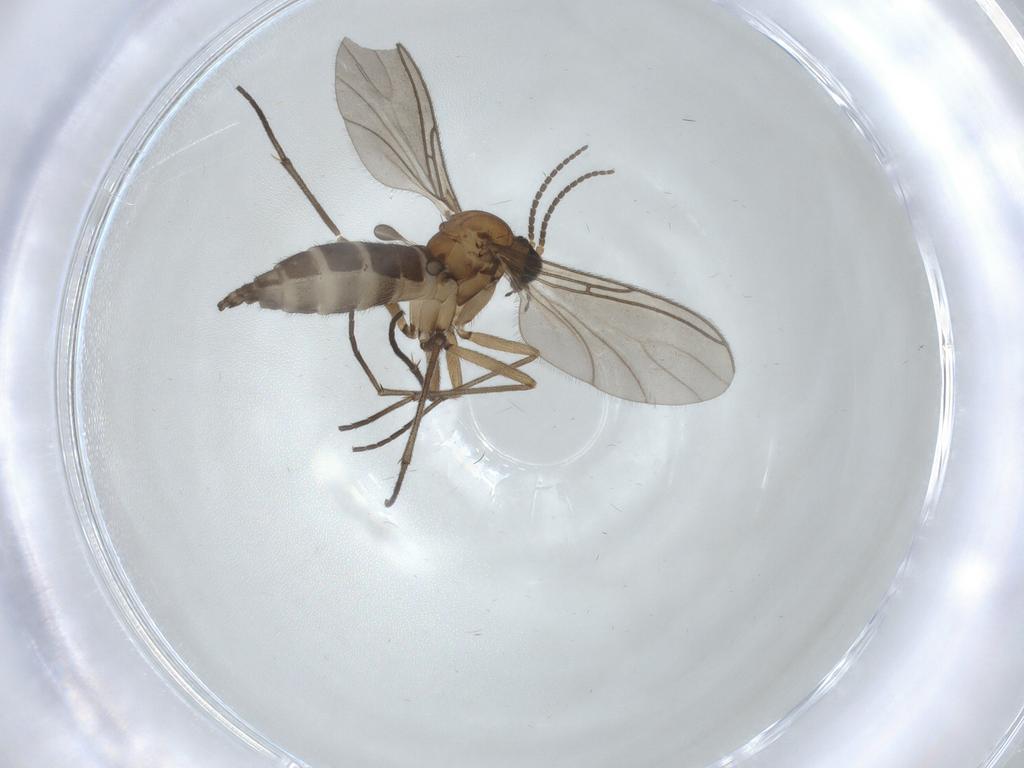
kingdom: Animalia
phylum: Arthropoda
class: Insecta
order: Diptera
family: Sciaridae
